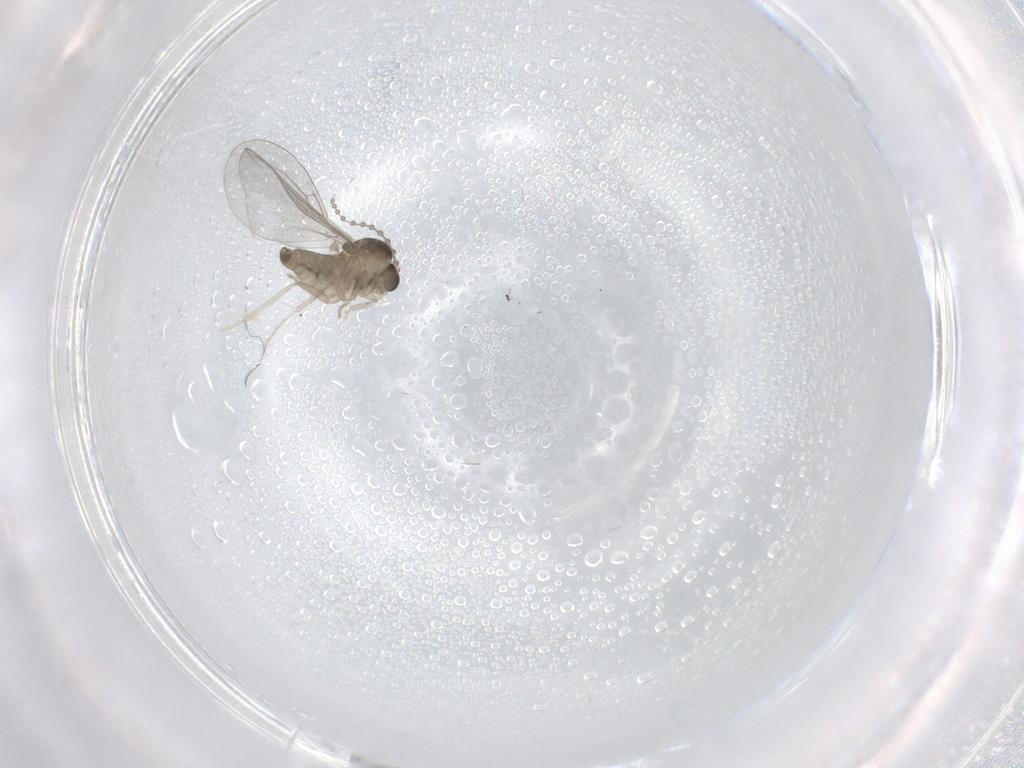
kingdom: Animalia
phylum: Arthropoda
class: Insecta
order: Diptera
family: Cecidomyiidae
